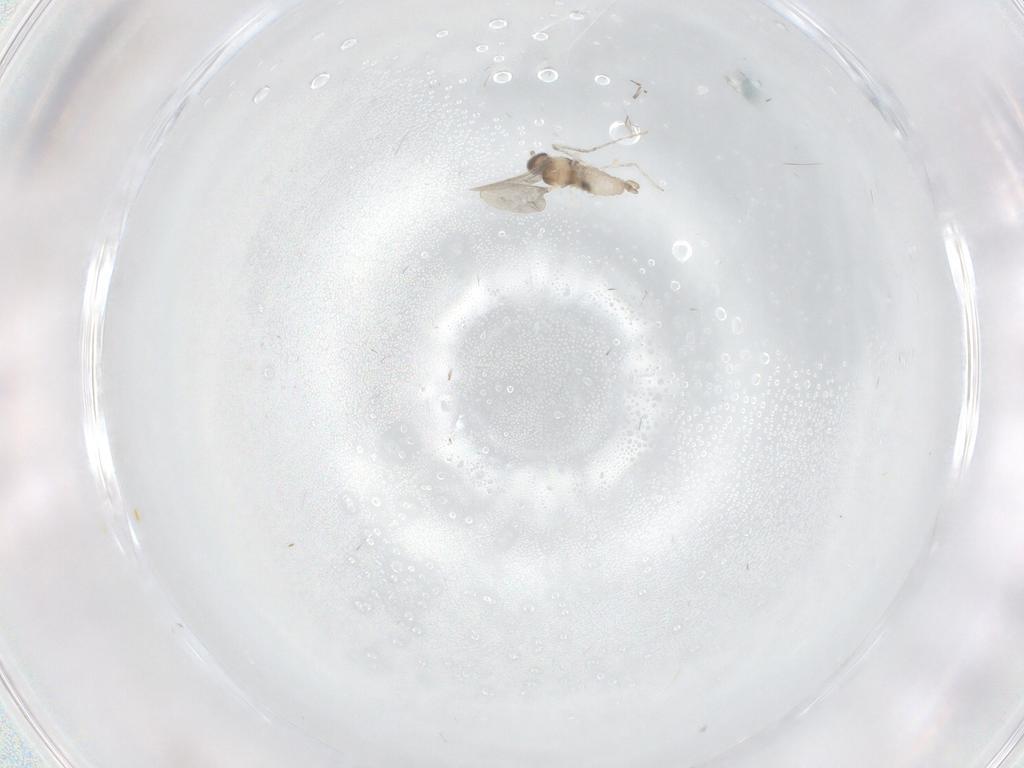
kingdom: Animalia
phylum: Arthropoda
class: Insecta
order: Diptera
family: Cecidomyiidae
